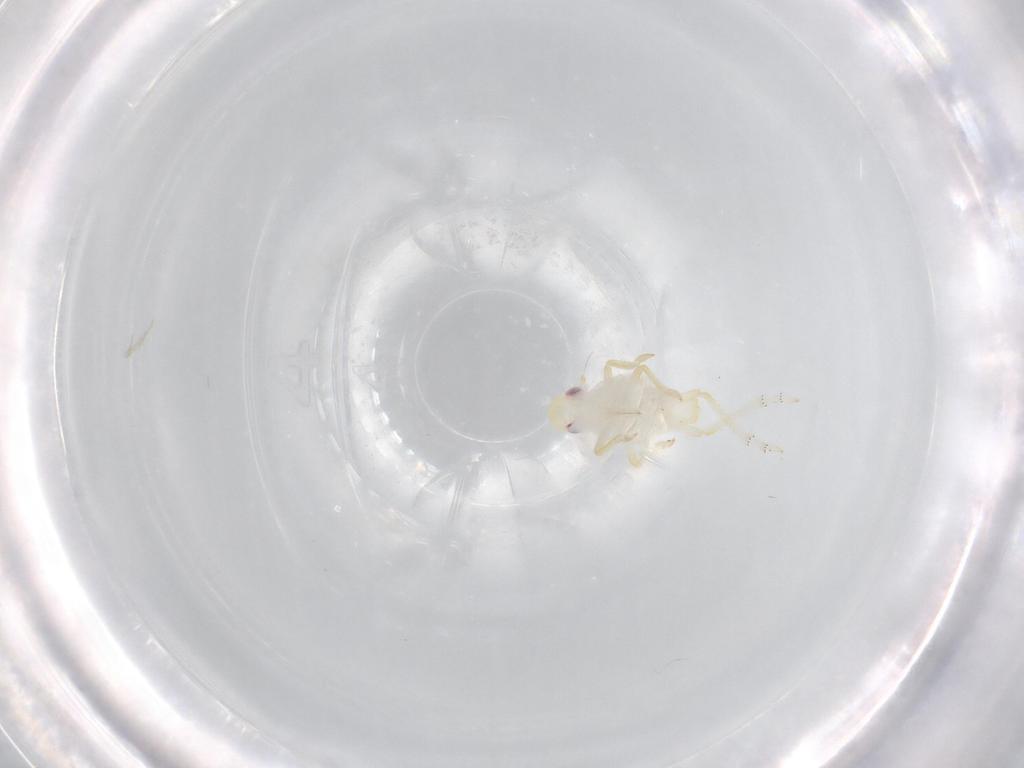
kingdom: Animalia
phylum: Arthropoda
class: Insecta
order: Hemiptera
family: Fulgoroidea_incertae_sedis
